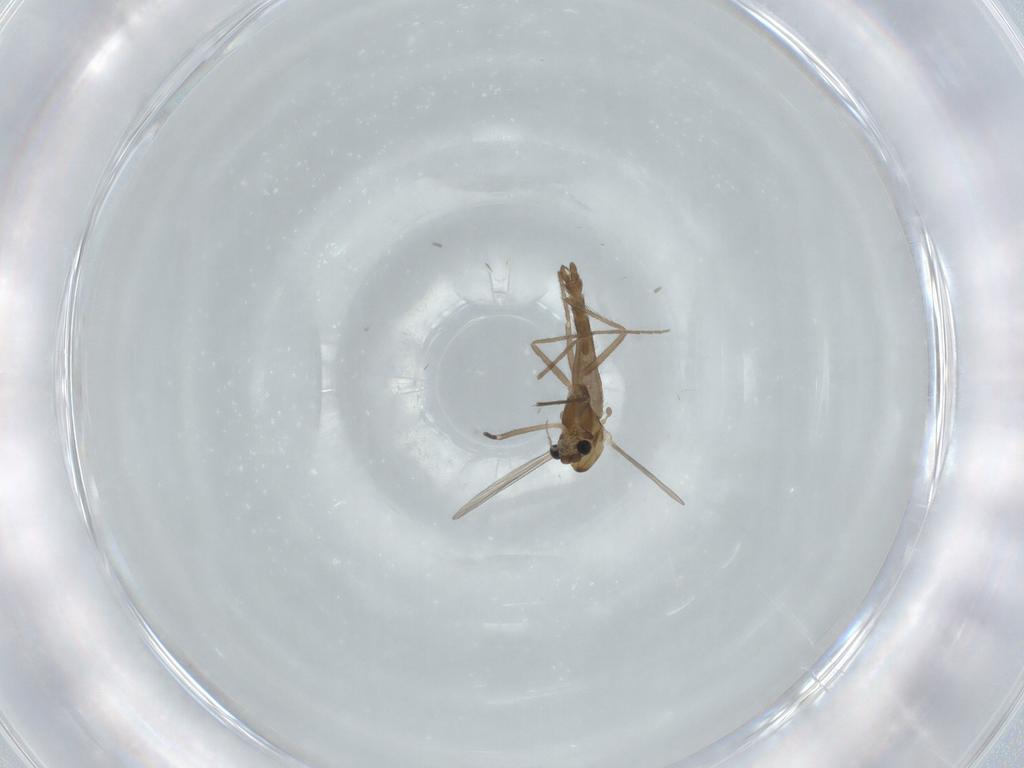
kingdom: Animalia
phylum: Arthropoda
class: Insecta
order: Diptera
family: Chironomidae
